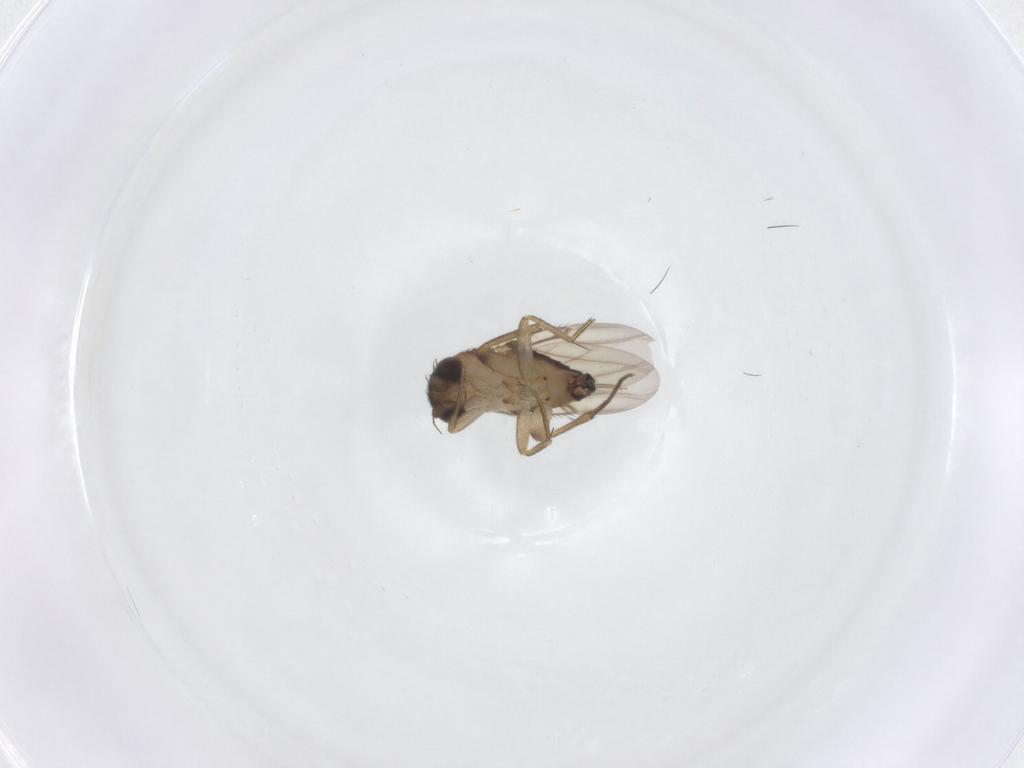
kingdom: Animalia
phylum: Arthropoda
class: Insecta
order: Diptera
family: Phoridae
